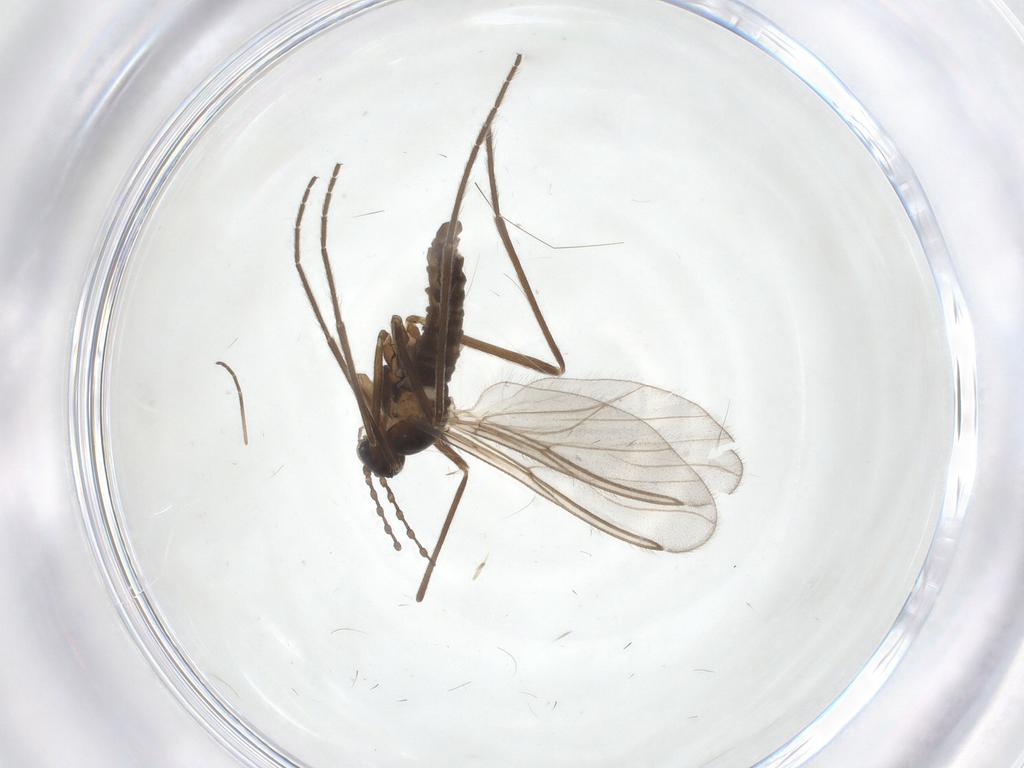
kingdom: Animalia
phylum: Arthropoda
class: Insecta
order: Diptera
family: Cecidomyiidae
